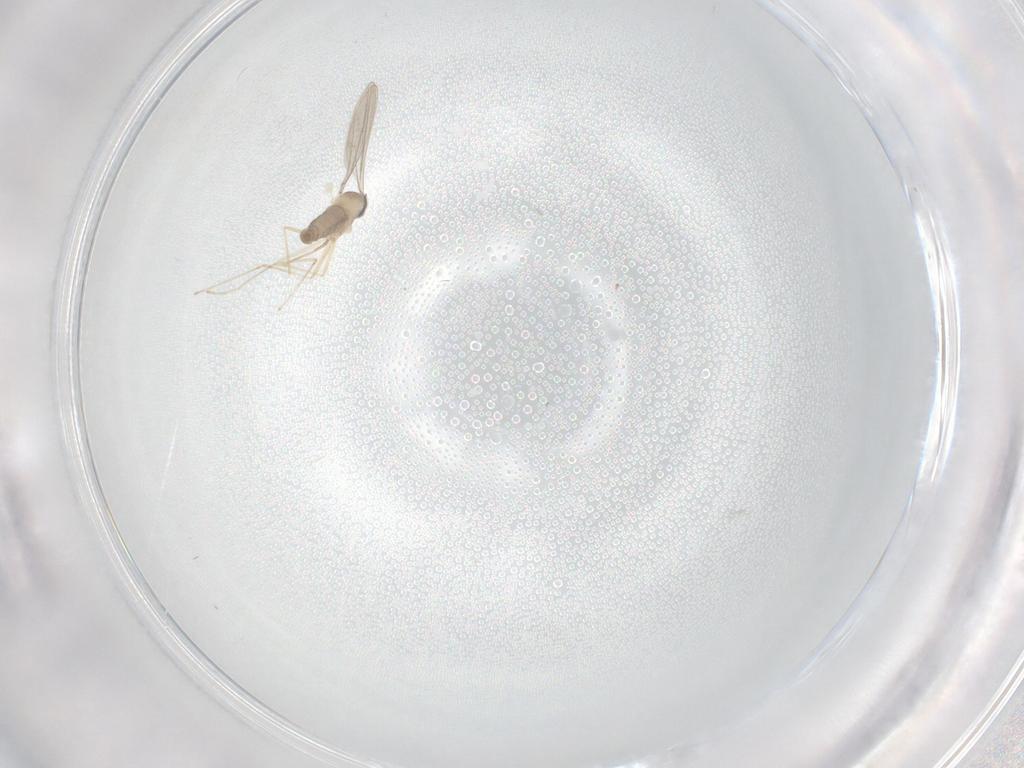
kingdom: Animalia
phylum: Arthropoda
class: Insecta
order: Diptera
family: Cecidomyiidae
